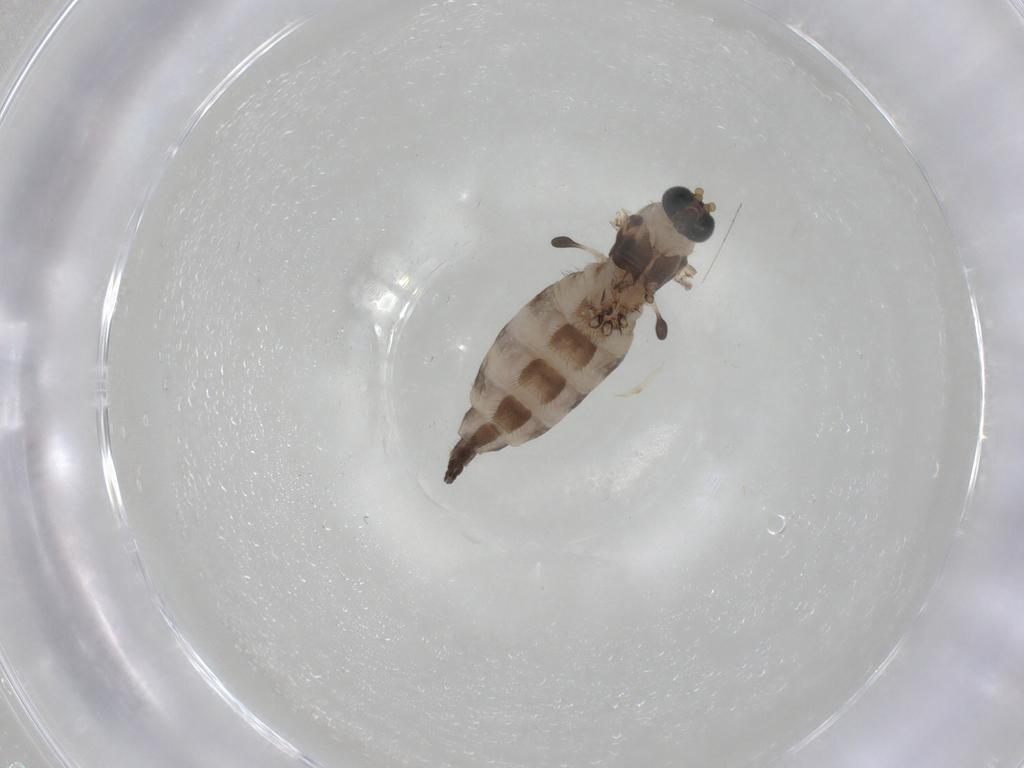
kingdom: Animalia
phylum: Arthropoda
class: Insecta
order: Diptera
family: Sciaridae
